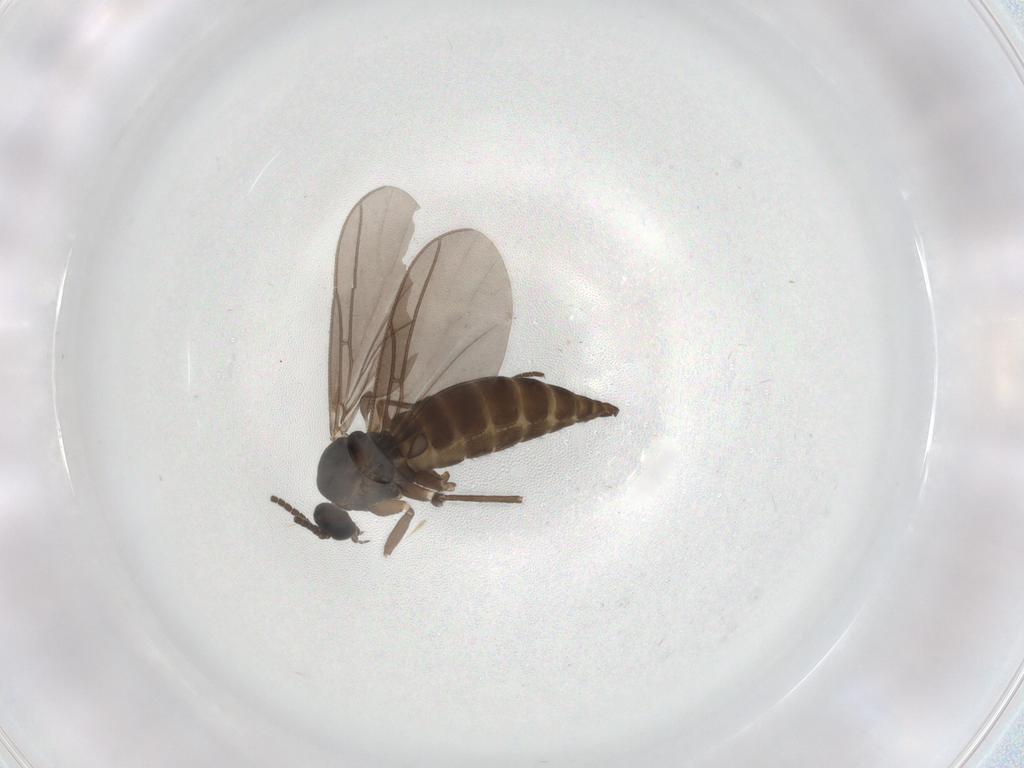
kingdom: Animalia
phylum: Arthropoda
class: Insecta
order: Diptera
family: Sciaridae
